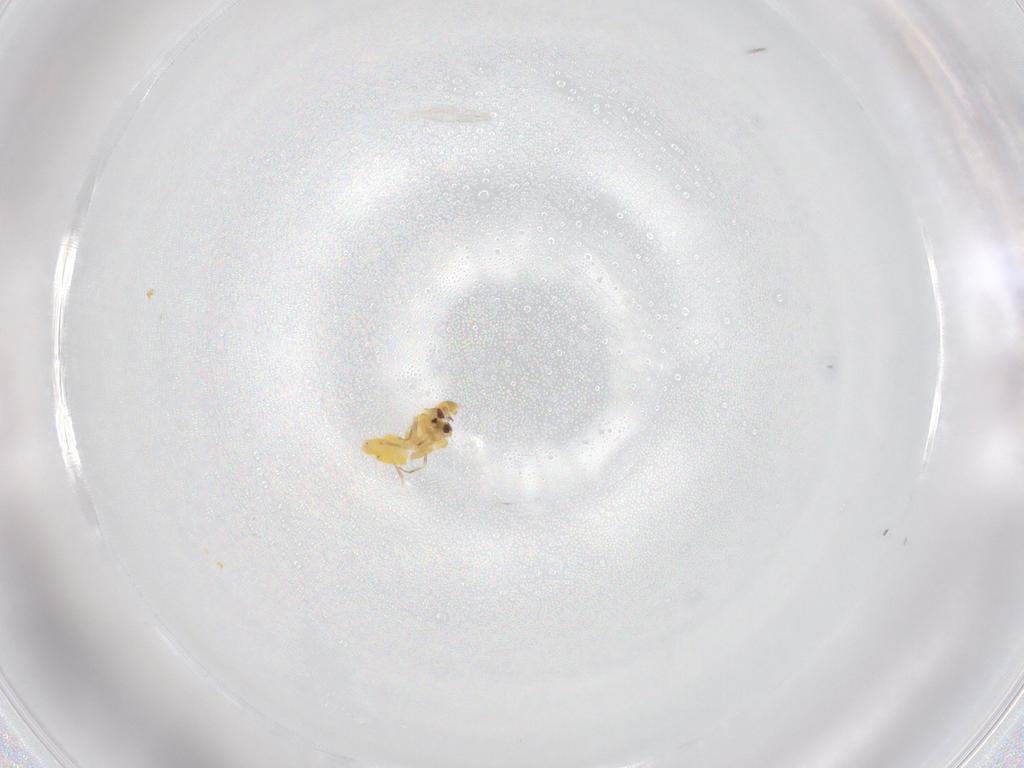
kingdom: Animalia
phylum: Arthropoda
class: Insecta
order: Hemiptera
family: Aleyrodidae
